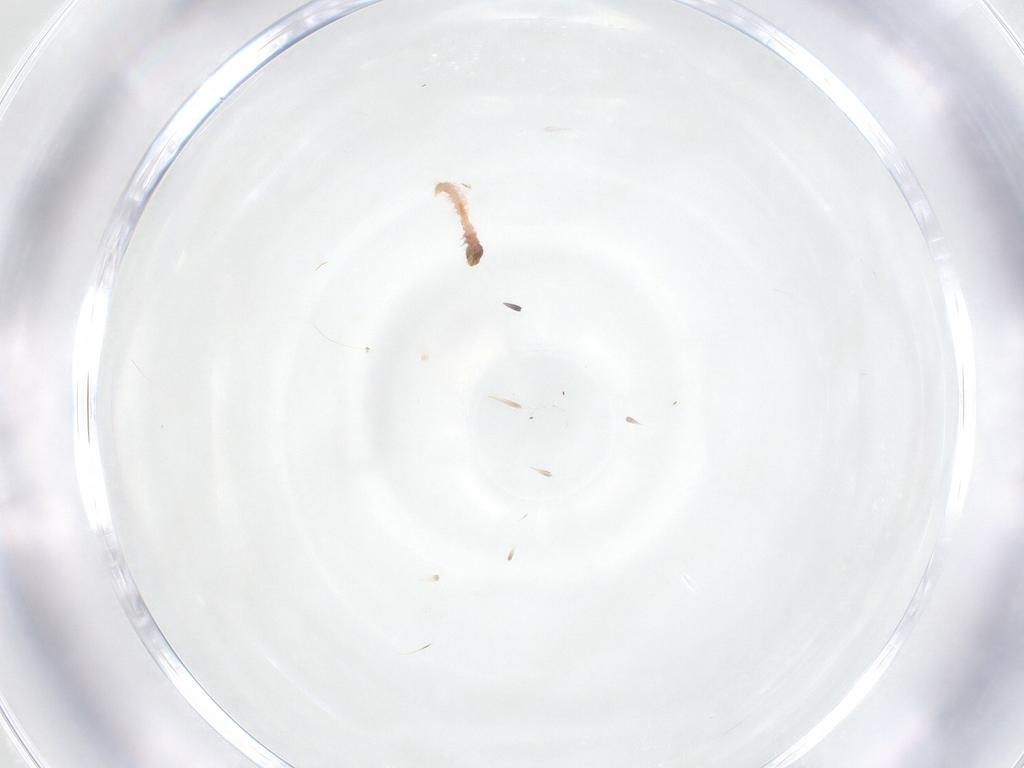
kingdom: Animalia
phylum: Arthropoda
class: Insecta
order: Lepidoptera
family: Lecithoceridae
